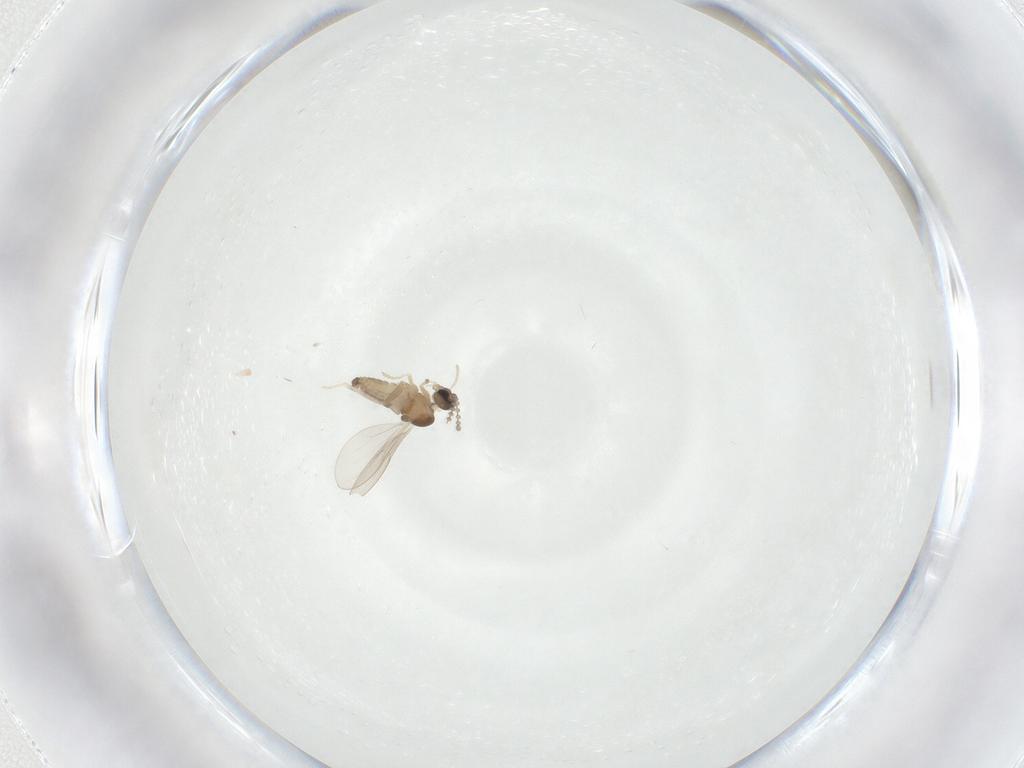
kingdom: Animalia
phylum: Arthropoda
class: Insecta
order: Diptera
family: Chironomidae
